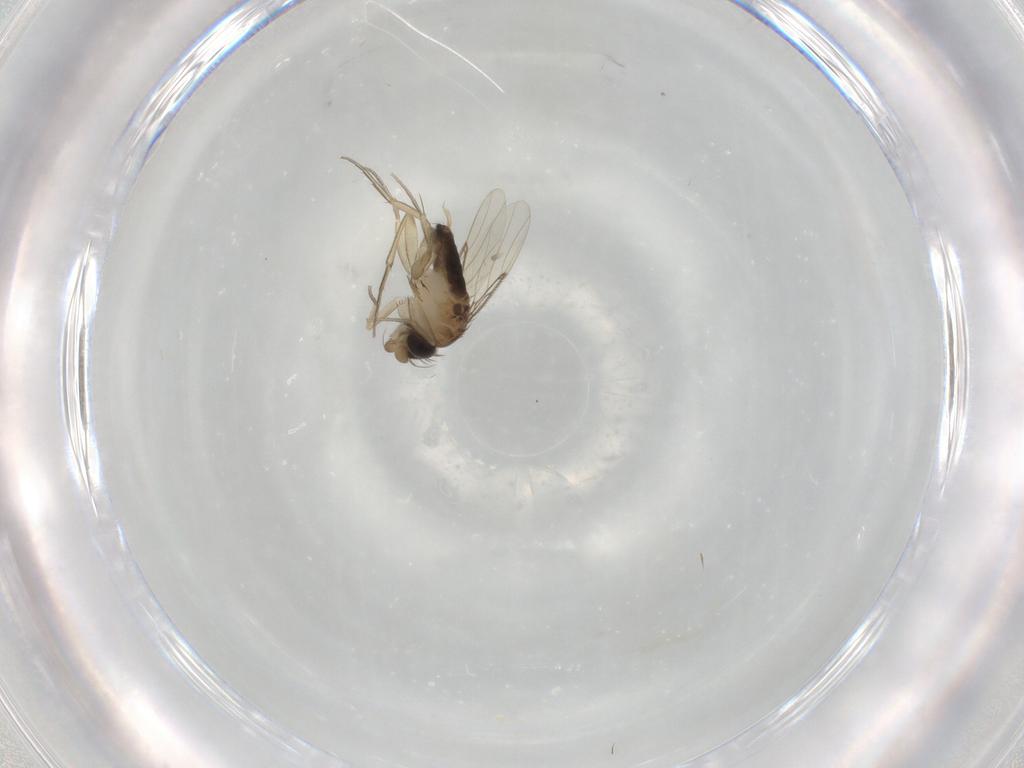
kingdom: Animalia
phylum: Arthropoda
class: Insecta
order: Diptera
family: Phoridae
